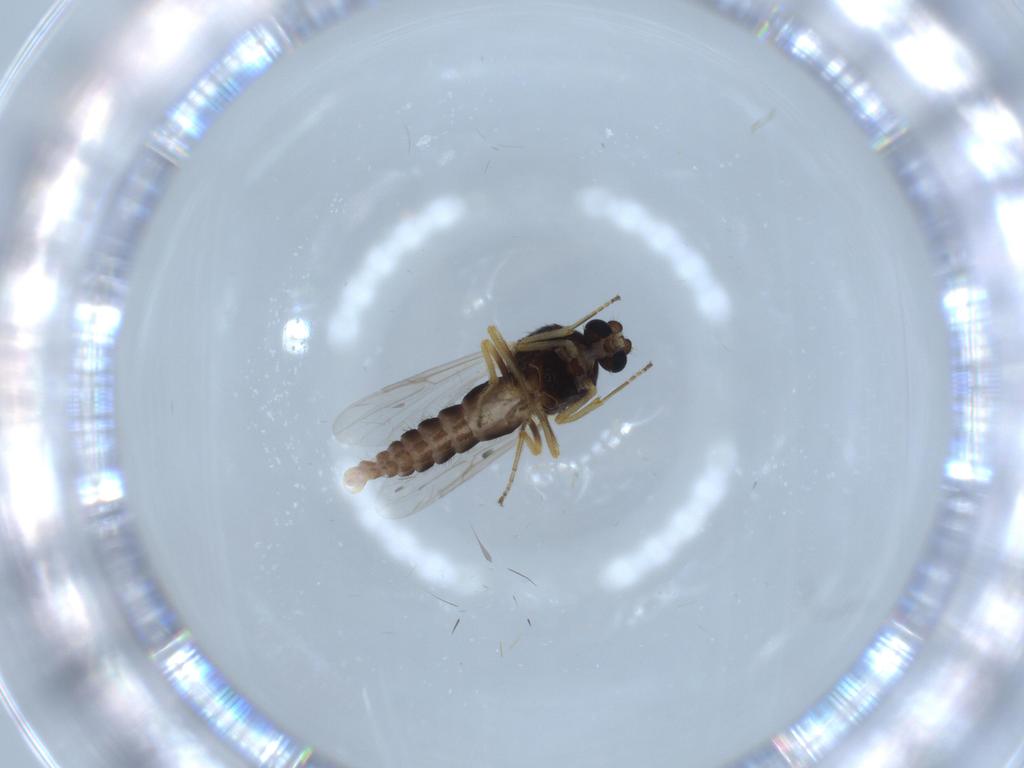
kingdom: Animalia
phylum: Arthropoda
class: Insecta
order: Diptera
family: Ceratopogonidae
